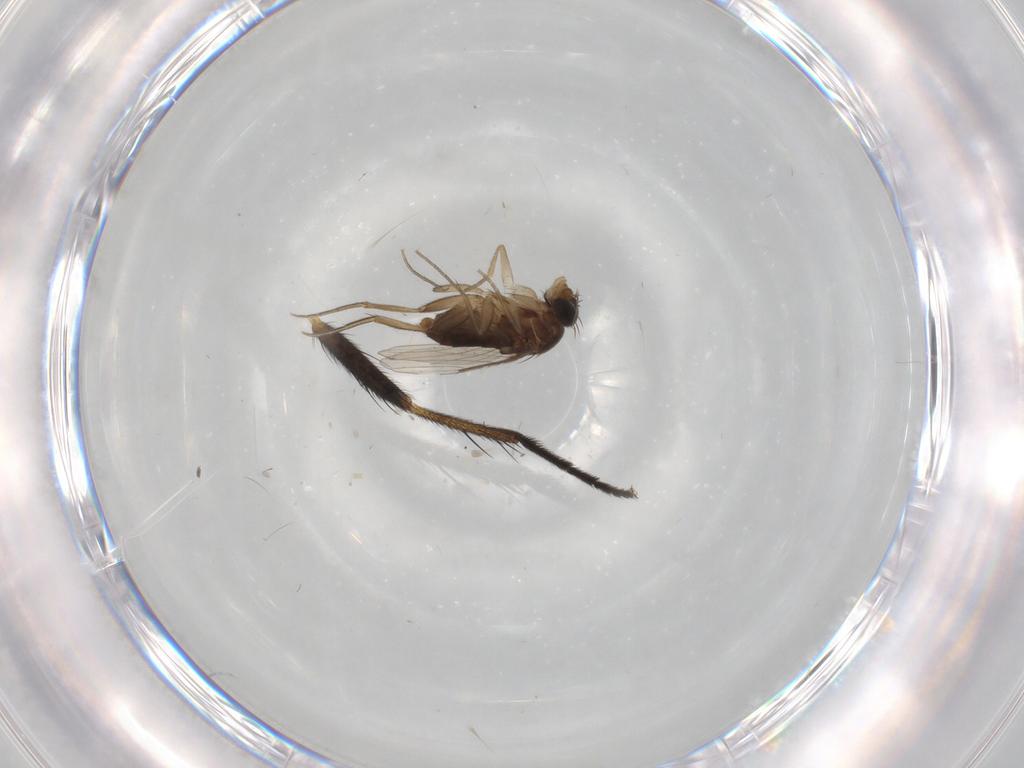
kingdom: Animalia
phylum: Arthropoda
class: Insecta
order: Diptera
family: Phoridae
